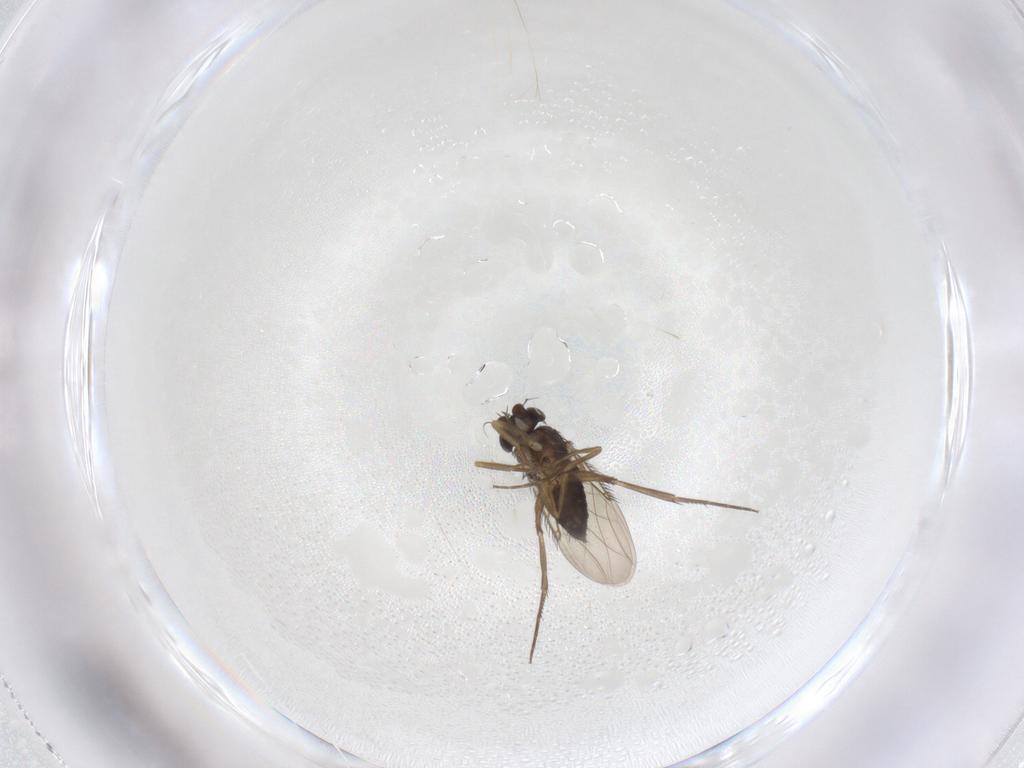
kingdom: Animalia
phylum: Arthropoda
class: Insecta
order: Diptera
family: Phoridae
